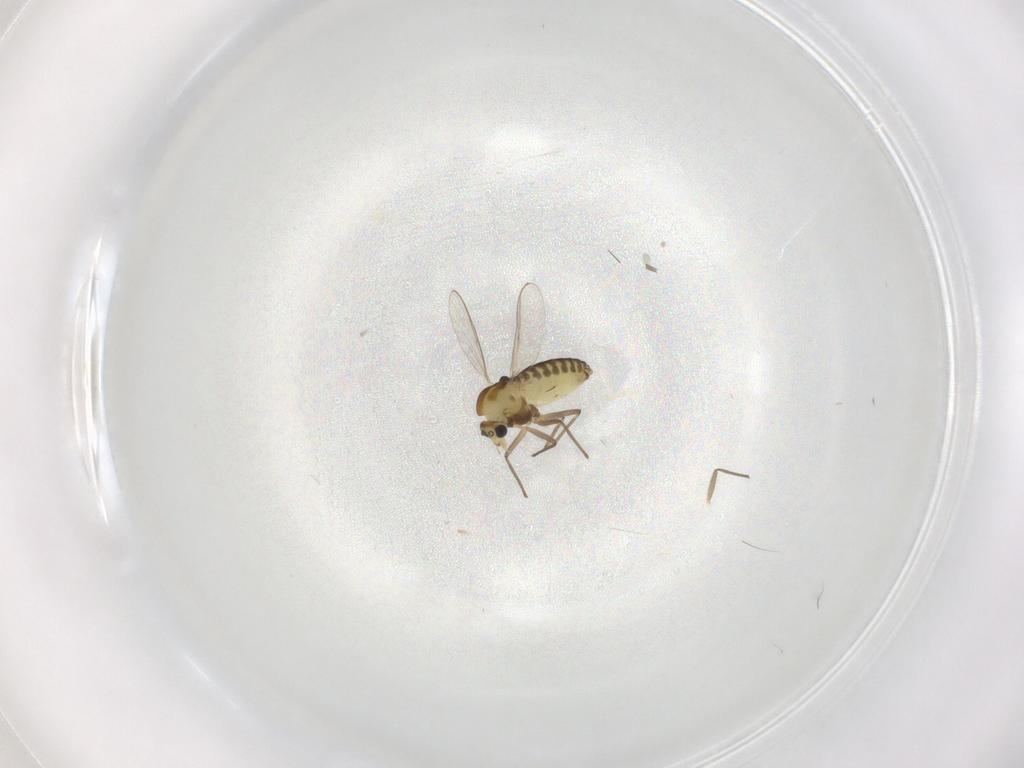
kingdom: Animalia
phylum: Arthropoda
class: Insecta
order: Diptera
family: Chironomidae
